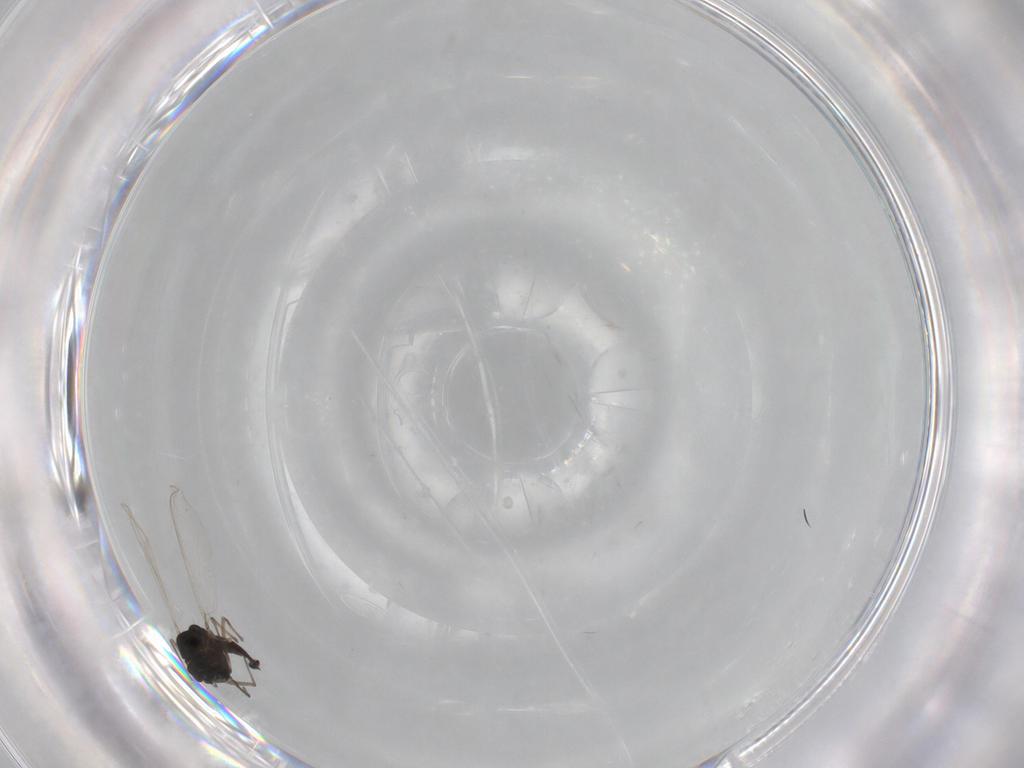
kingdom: Animalia
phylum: Arthropoda
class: Insecta
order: Diptera
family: Chironomidae
